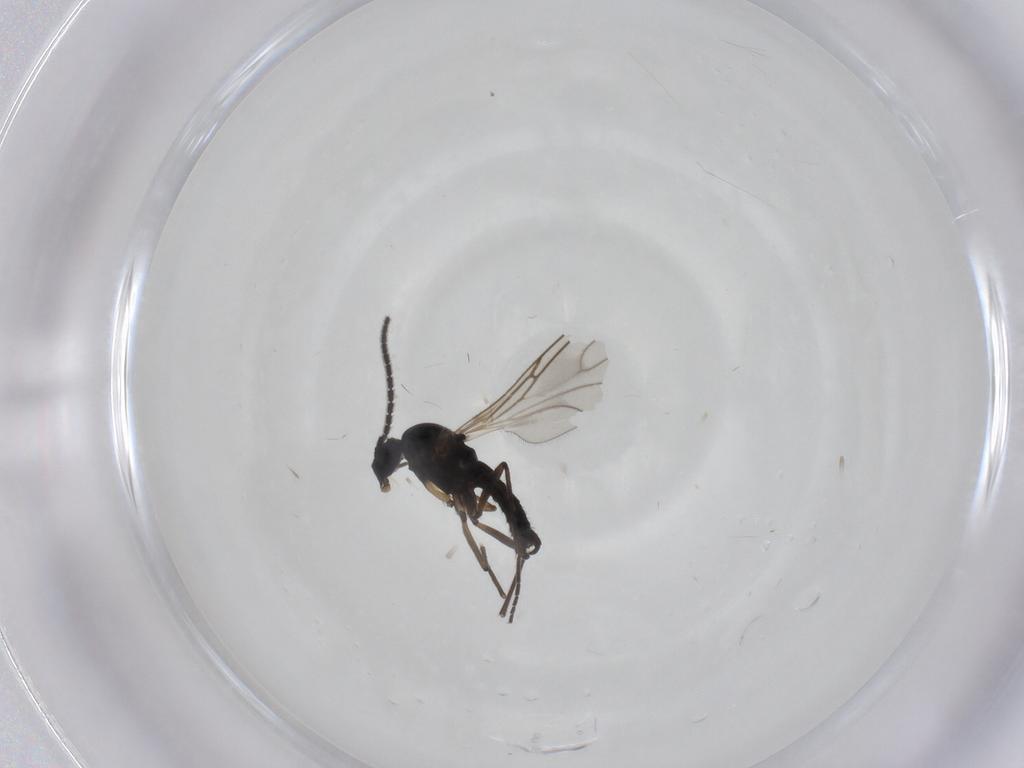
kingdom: Animalia
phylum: Arthropoda
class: Insecta
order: Diptera
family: Sciaridae
